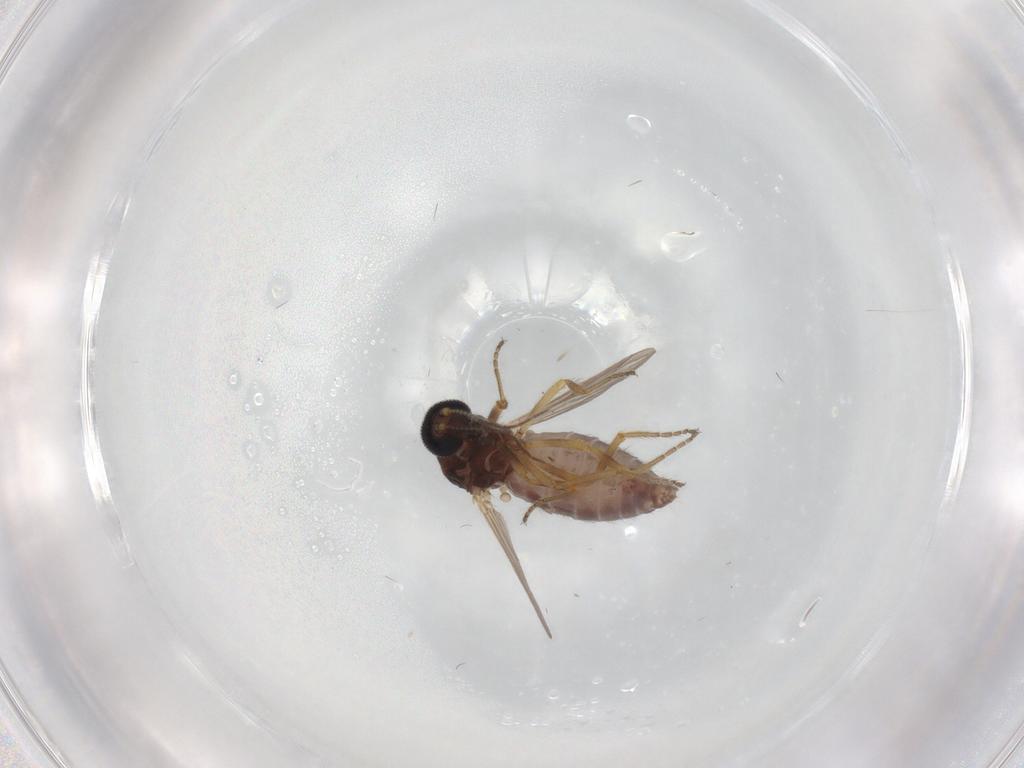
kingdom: Animalia
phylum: Arthropoda
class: Insecta
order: Diptera
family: Ceratopogonidae
